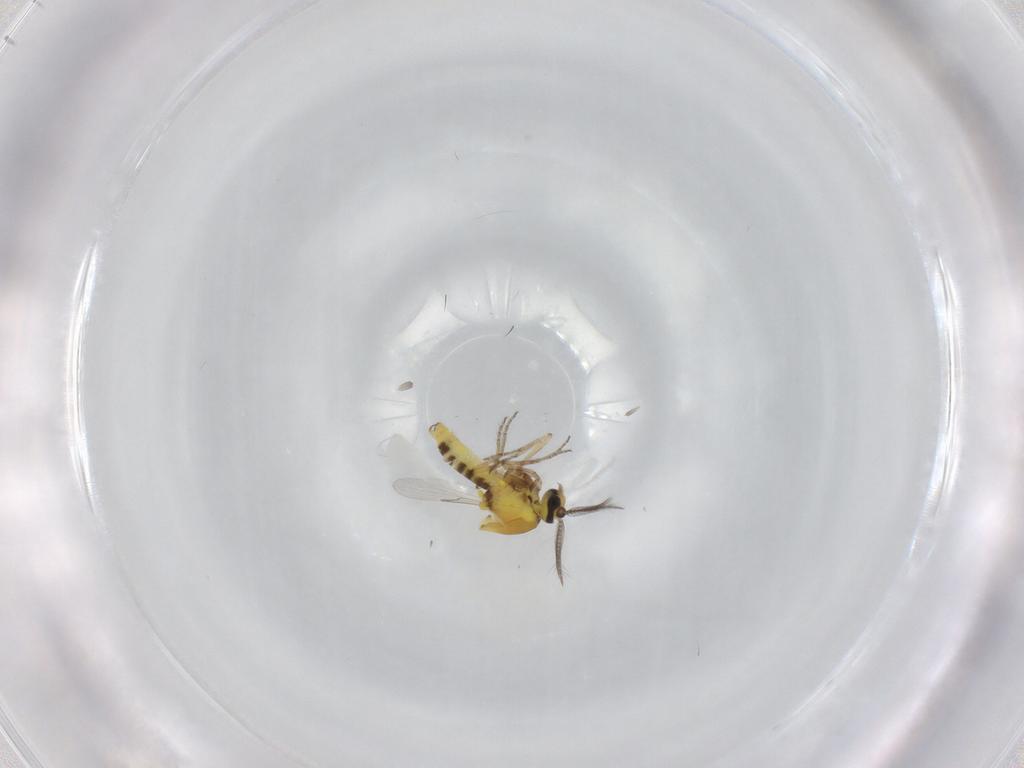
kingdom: Animalia
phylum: Arthropoda
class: Insecta
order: Diptera
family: Ceratopogonidae
